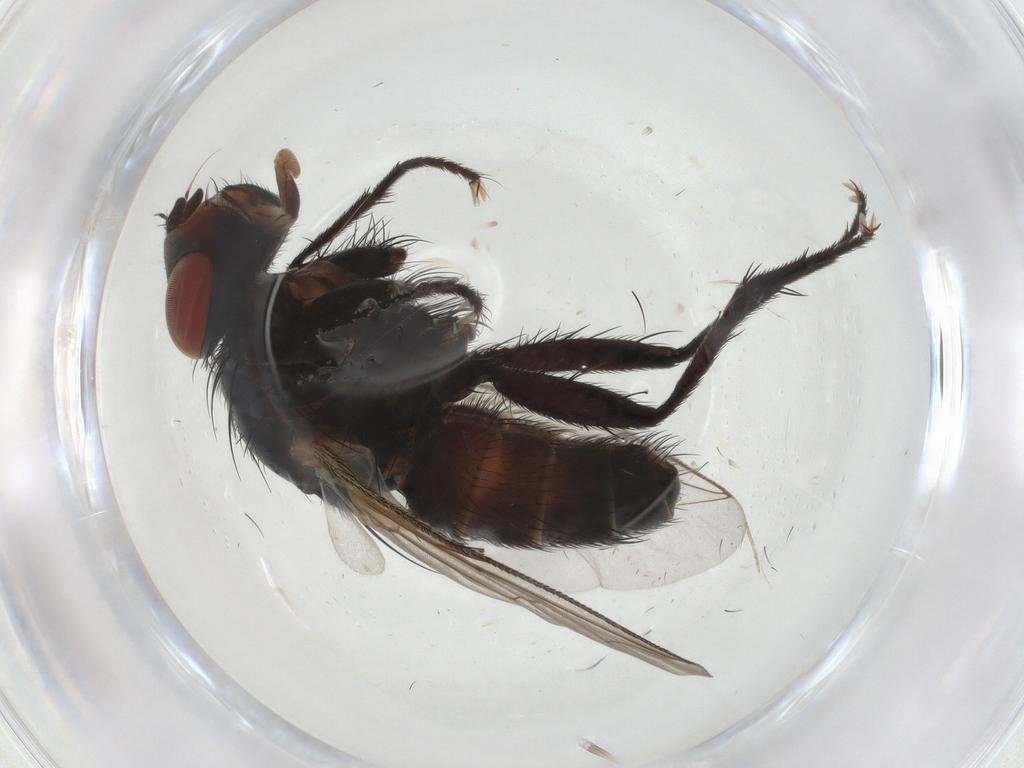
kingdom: Animalia
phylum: Arthropoda
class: Insecta
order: Diptera
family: Sarcophagidae
